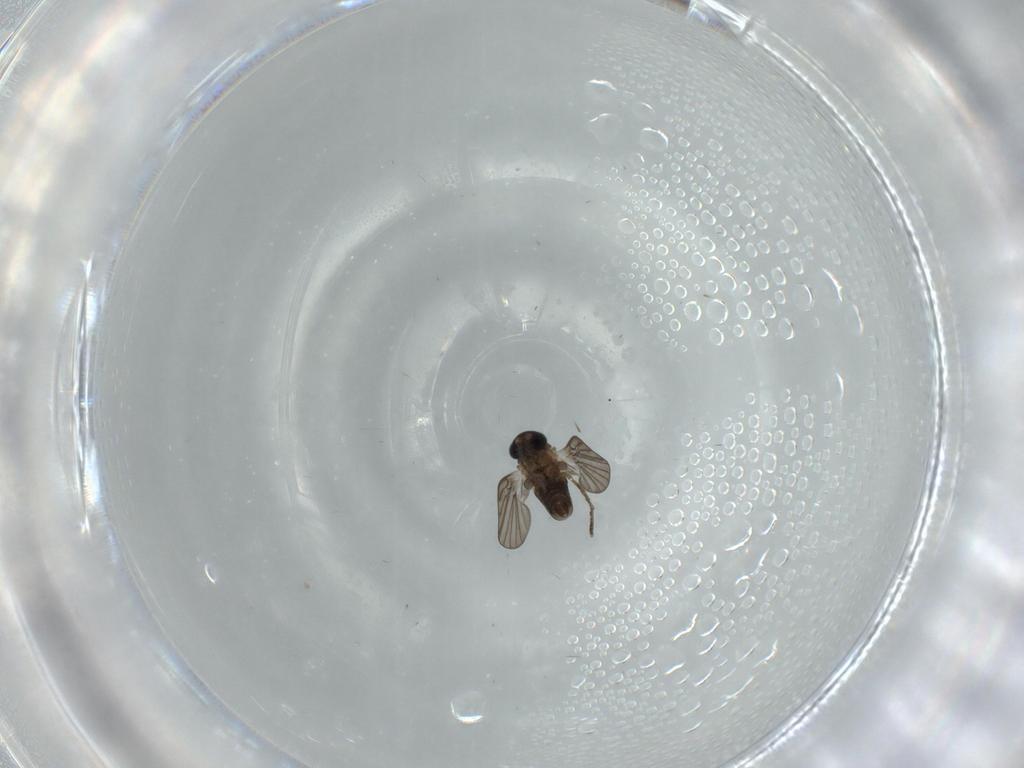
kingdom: Animalia
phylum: Arthropoda
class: Insecta
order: Diptera
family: Psychodidae
